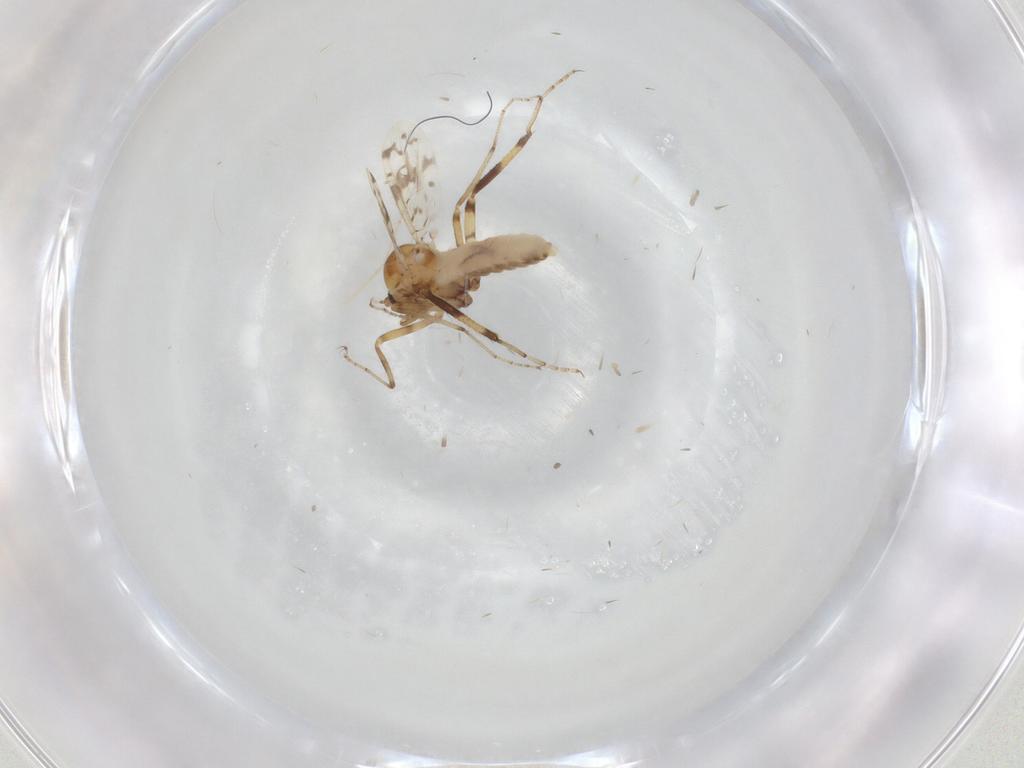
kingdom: Animalia
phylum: Arthropoda
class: Insecta
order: Diptera
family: Ceratopogonidae
